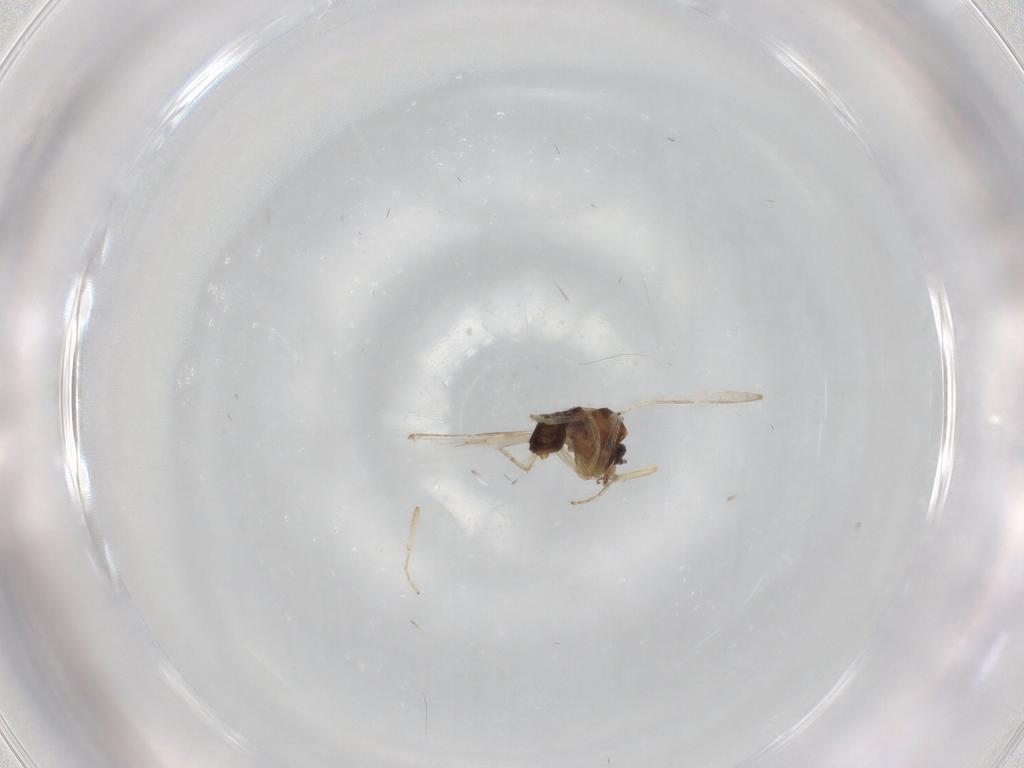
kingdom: Animalia
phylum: Arthropoda
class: Insecta
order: Diptera
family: Ceratopogonidae
